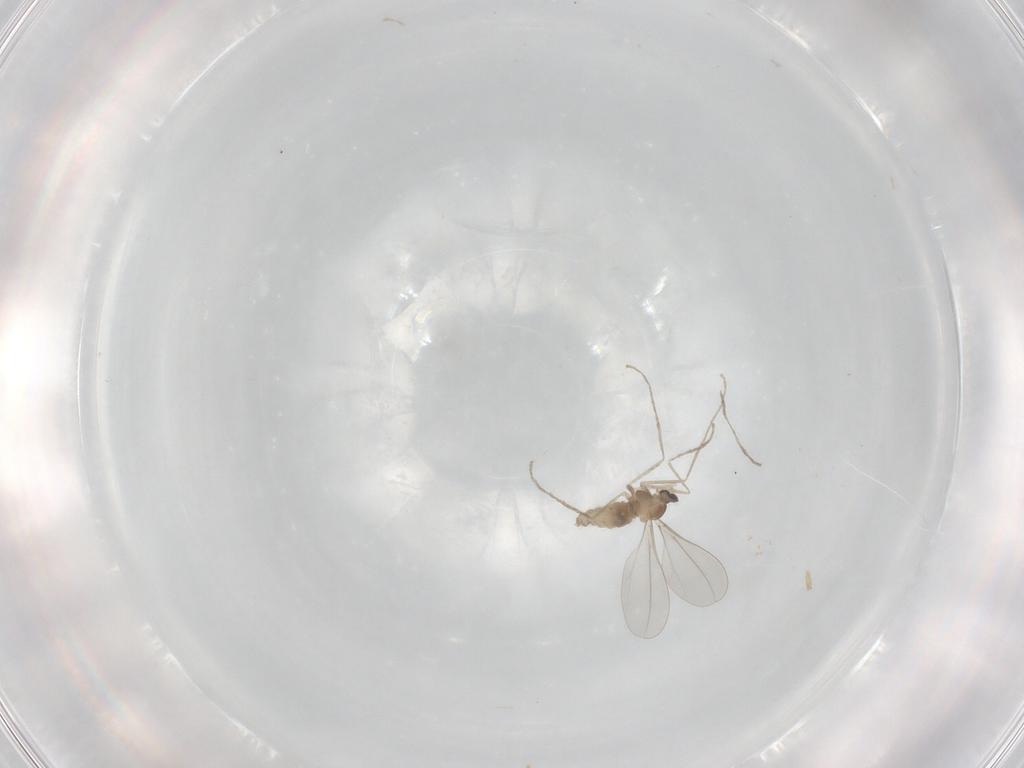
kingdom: Animalia
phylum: Arthropoda
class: Insecta
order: Diptera
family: Cecidomyiidae
